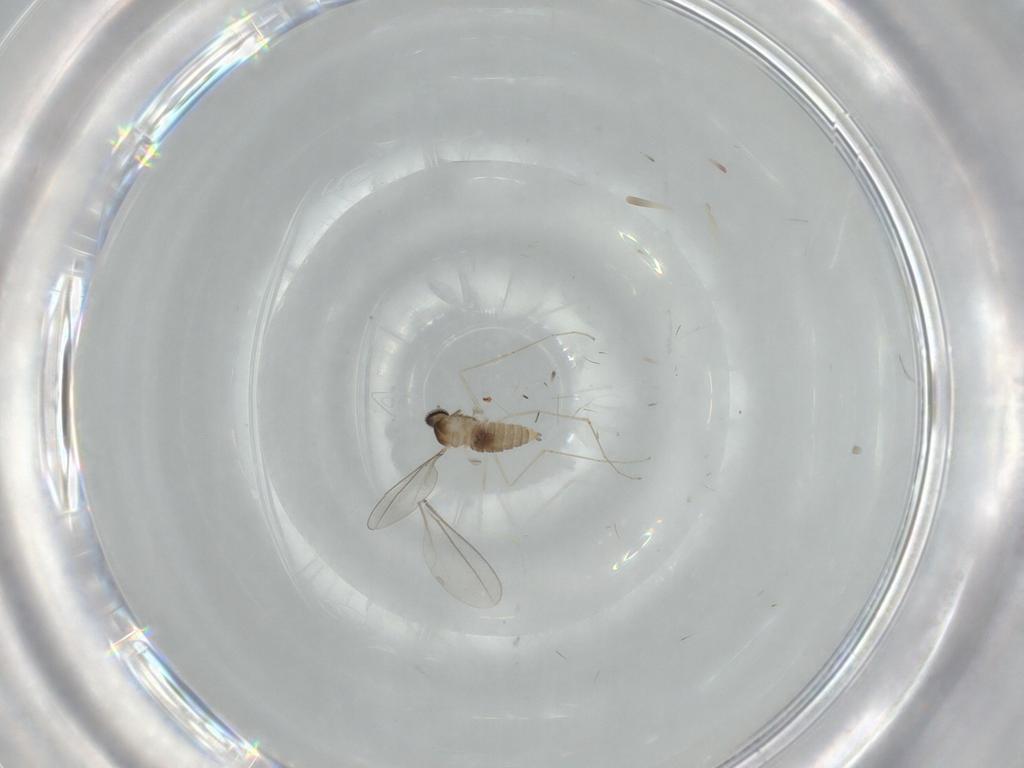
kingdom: Animalia
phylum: Arthropoda
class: Insecta
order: Diptera
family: Cecidomyiidae
